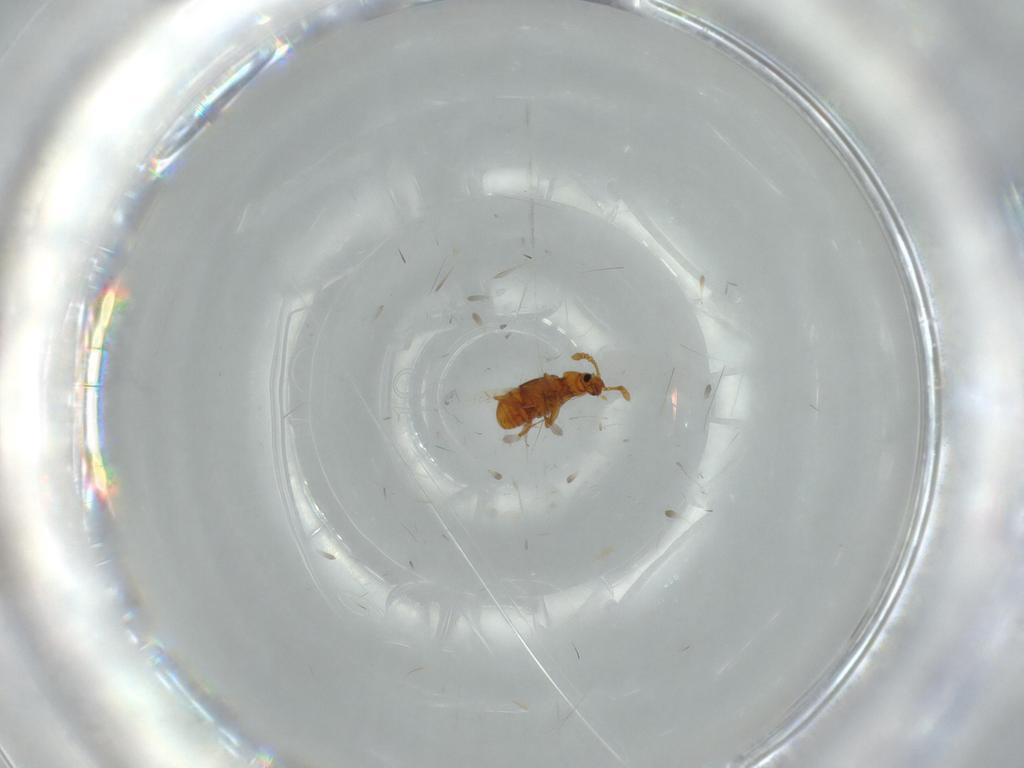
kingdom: Animalia
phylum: Arthropoda
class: Insecta
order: Coleoptera
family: Staphylinidae
